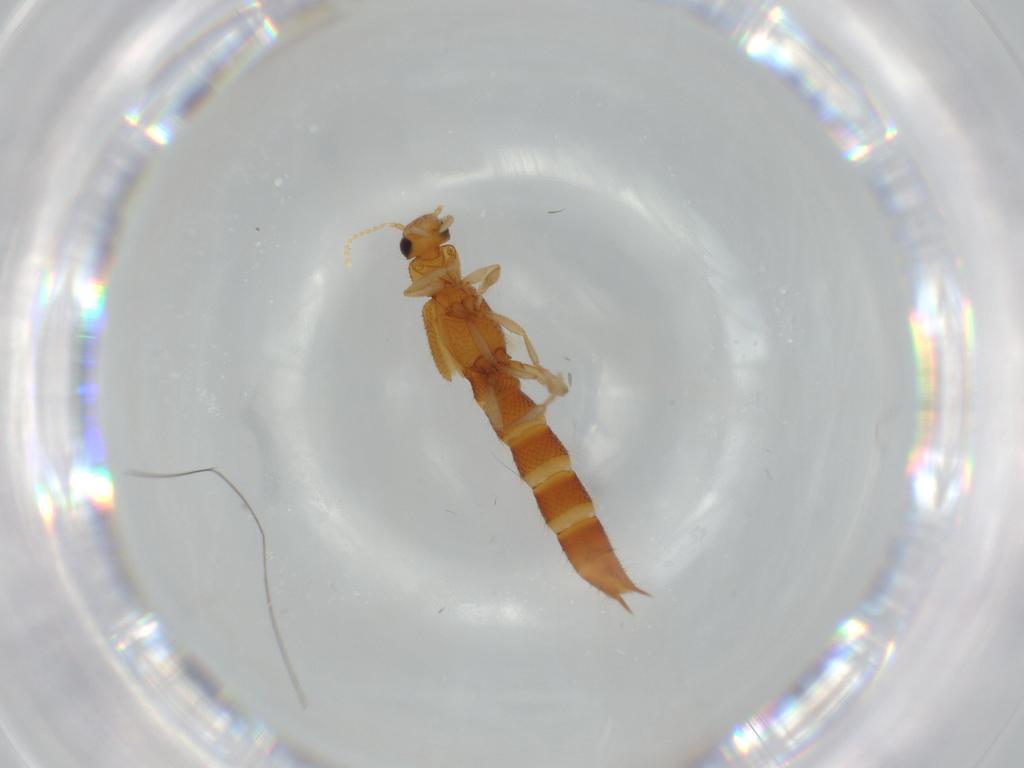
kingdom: Animalia
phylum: Arthropoda
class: Insecta
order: Coleoptera
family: Staphylinidae
